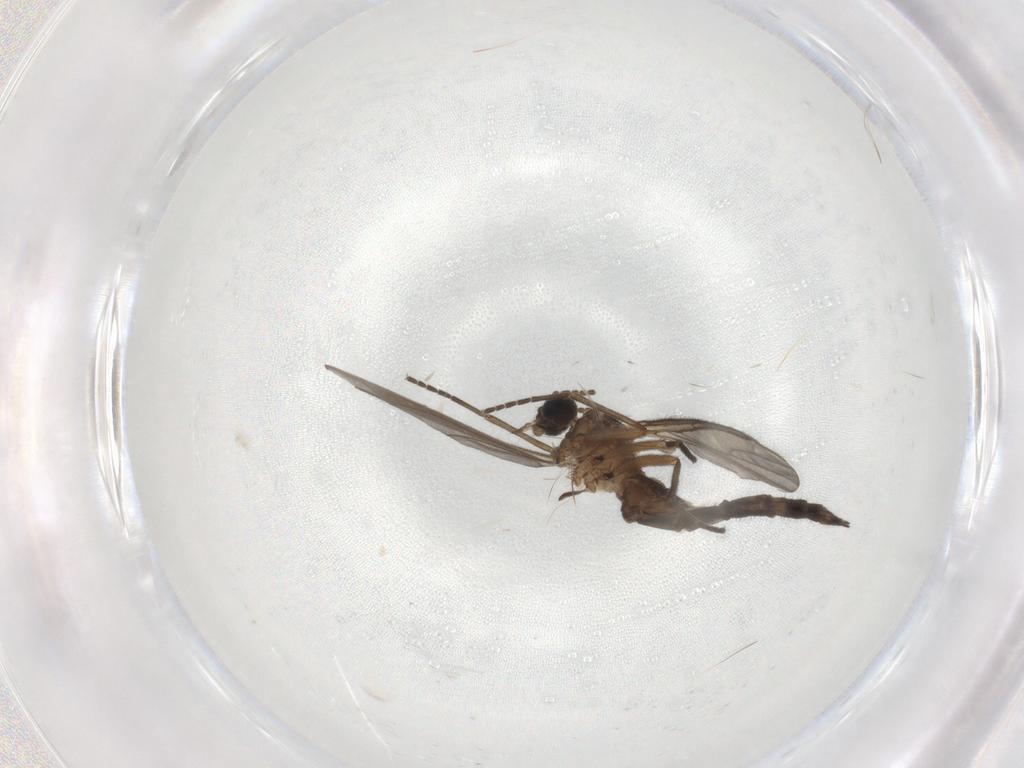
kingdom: Animalia
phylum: Arthropoda
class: Insecta
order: Diptera
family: Sciaridae
